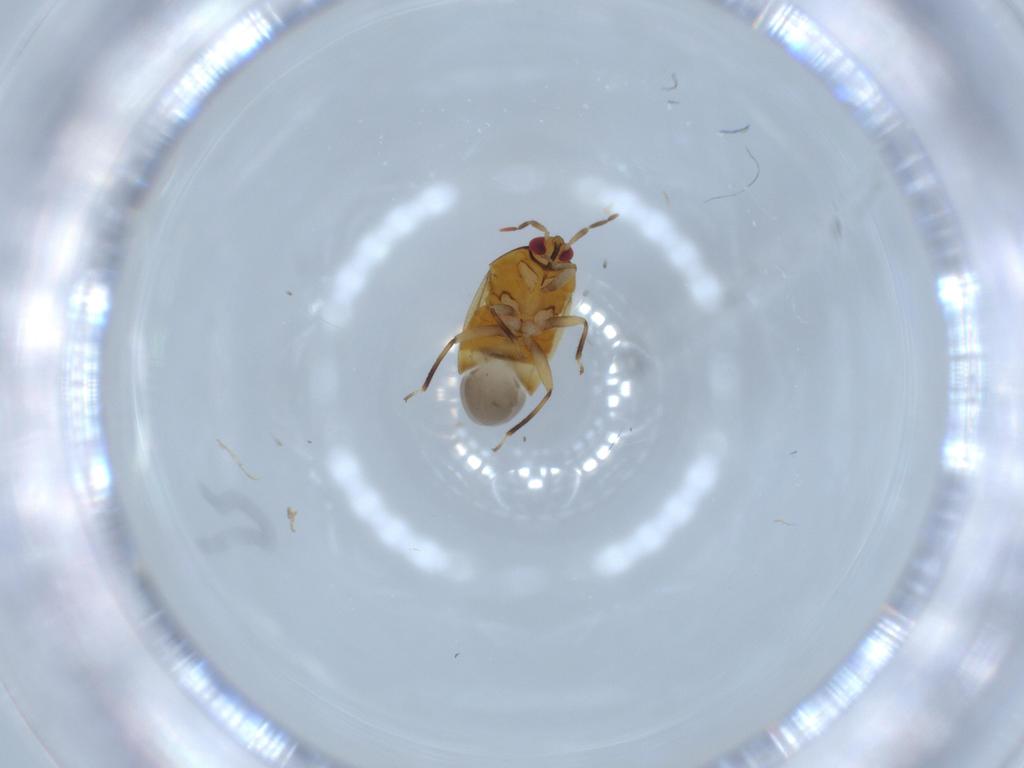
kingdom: Animalia
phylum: Arthropoda
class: Insecta
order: Hemiptera
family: Anthocoridae
